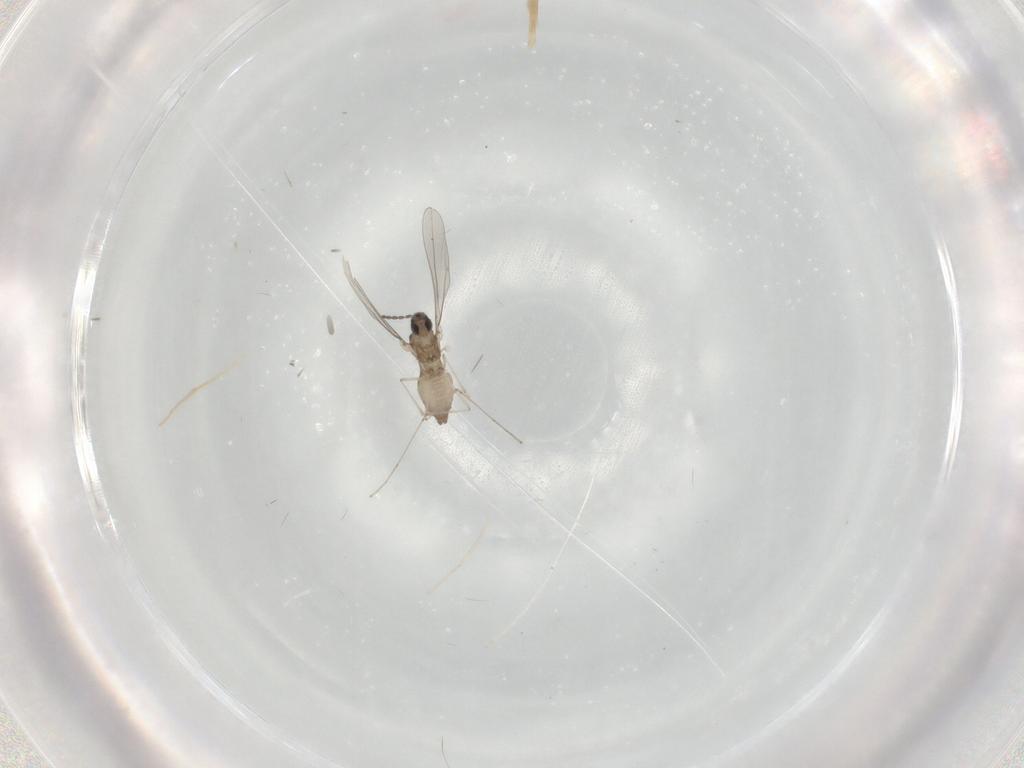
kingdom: Animalia
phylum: Arthropoda
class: Insecta
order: Diptera
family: Cecidomyiidae
